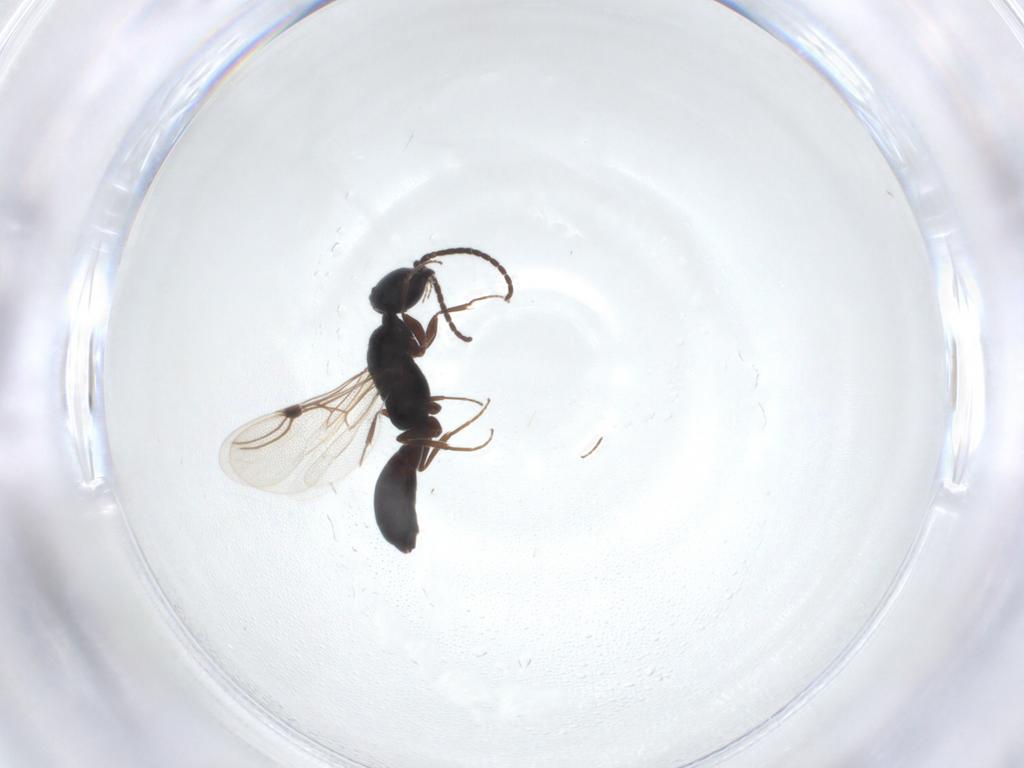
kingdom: Animalia
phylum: Arthropoda
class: Insecta
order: Hymenoptera
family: Bethylidae
